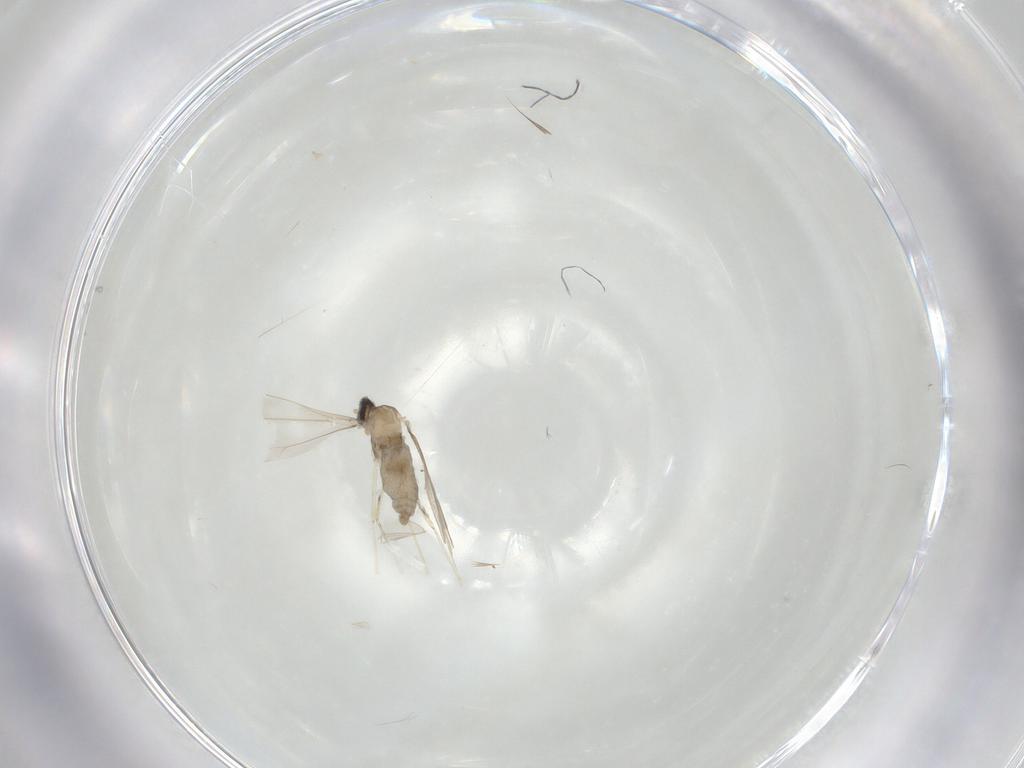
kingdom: Animalia
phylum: Arthropoda
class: Insecta
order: Diptera
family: Cecidomyiidae
